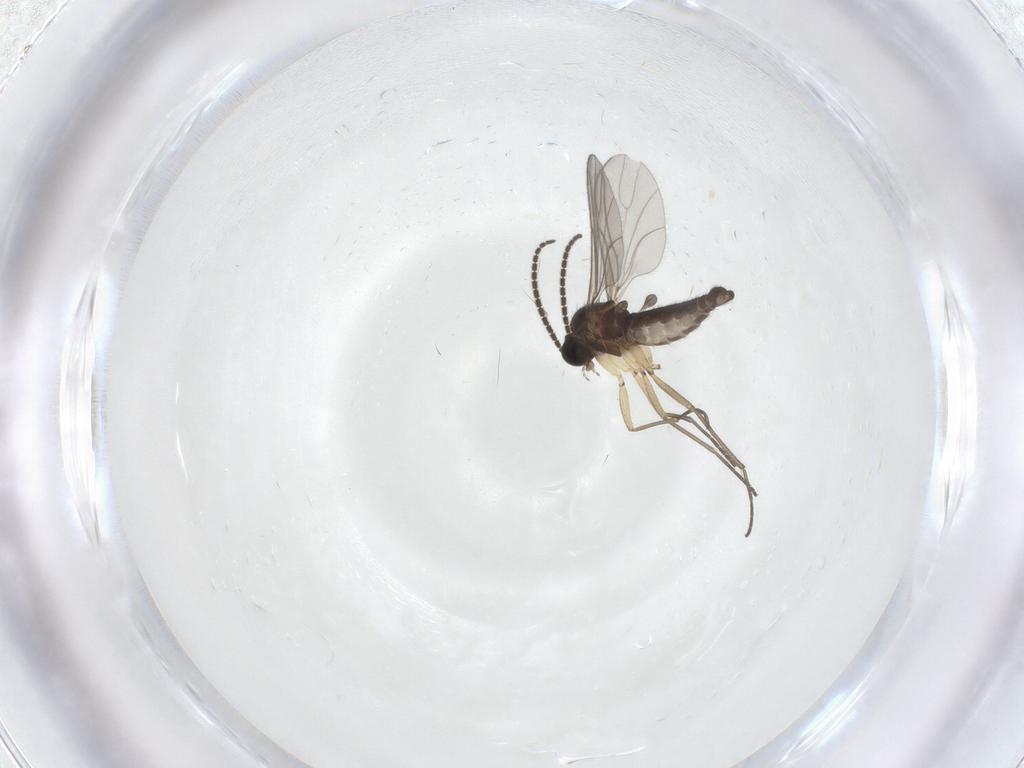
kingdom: Animalia
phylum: Arthropoda
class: Insecta
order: Diptera
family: Sciaridae
